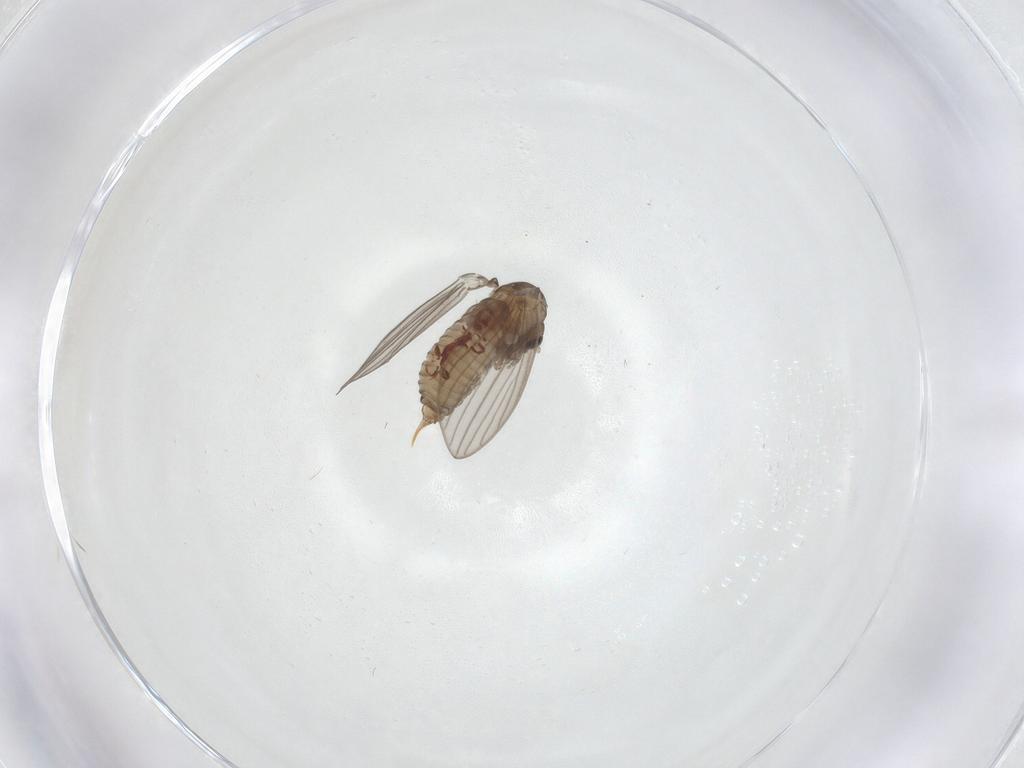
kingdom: Animalia
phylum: Arthropoda
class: Insecta
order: Diptera
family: Psychodidae
